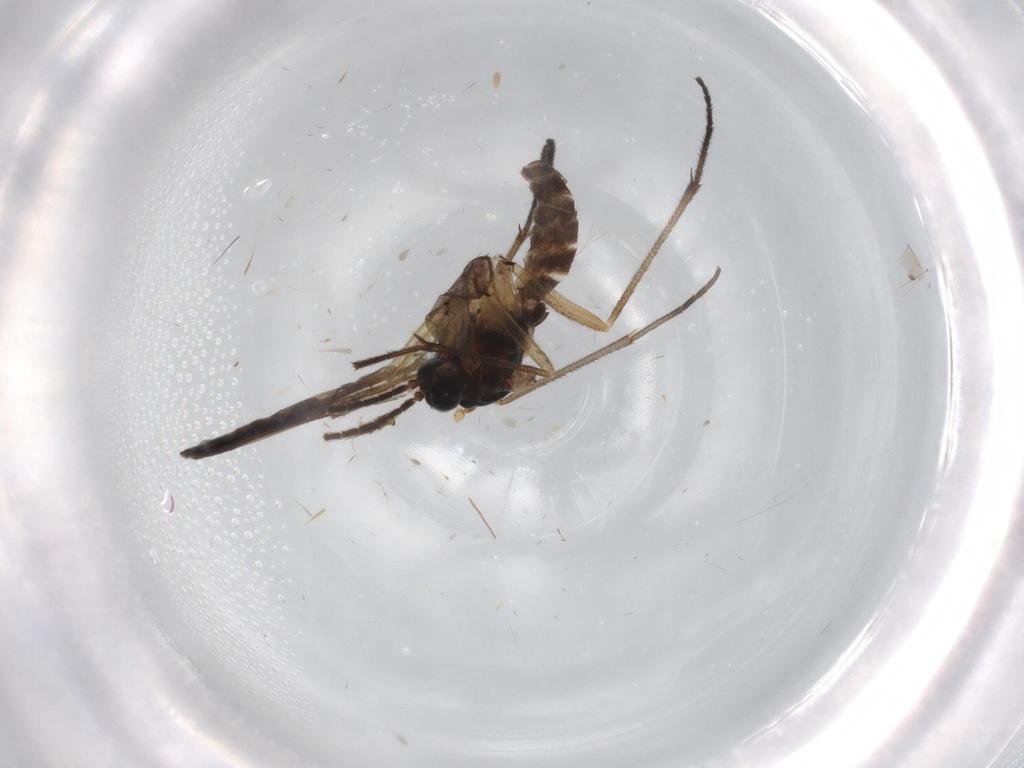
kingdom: Animalia
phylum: Arthropoda
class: Insecta
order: Diptera
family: Sciaridae
